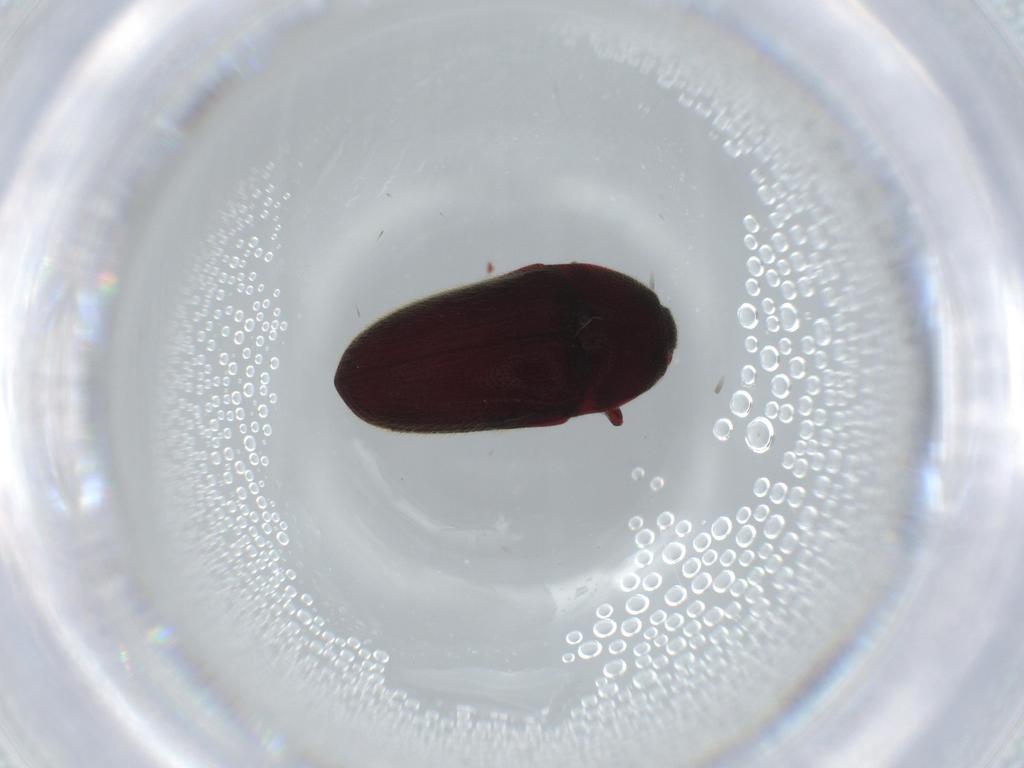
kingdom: Animalia
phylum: Arthropoda
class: Insecta
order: Coleoptera
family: Throscidae
